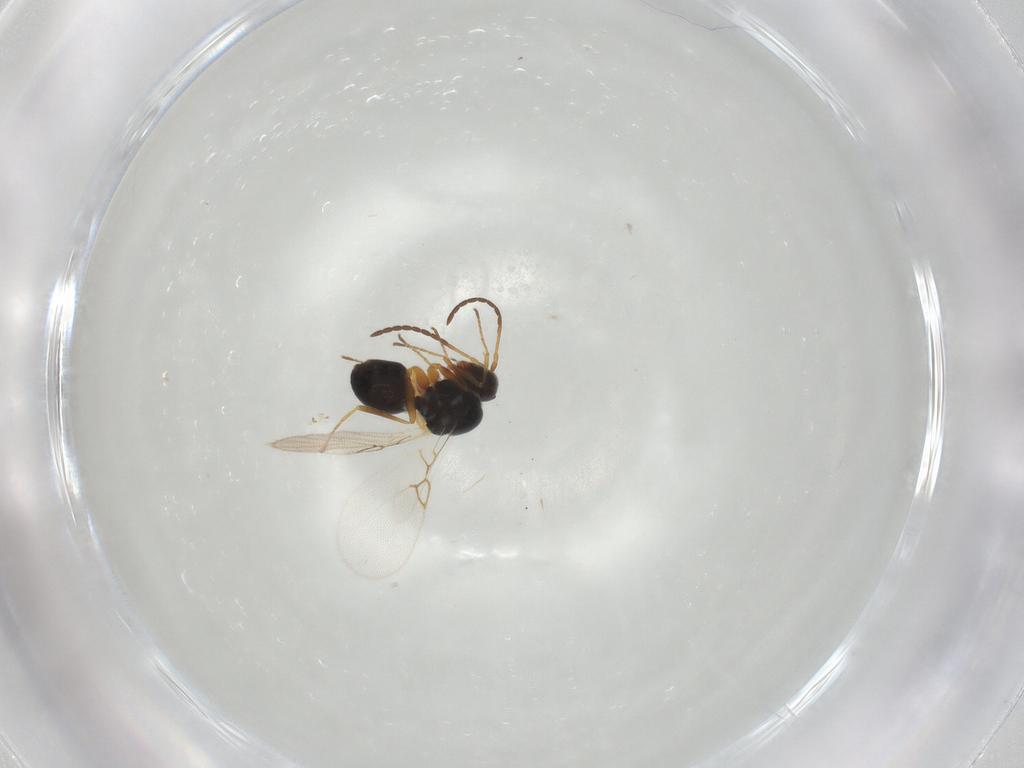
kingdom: Animalia
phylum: Arthropoda
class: Insecta
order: Hymenoptera
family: Figitidae
